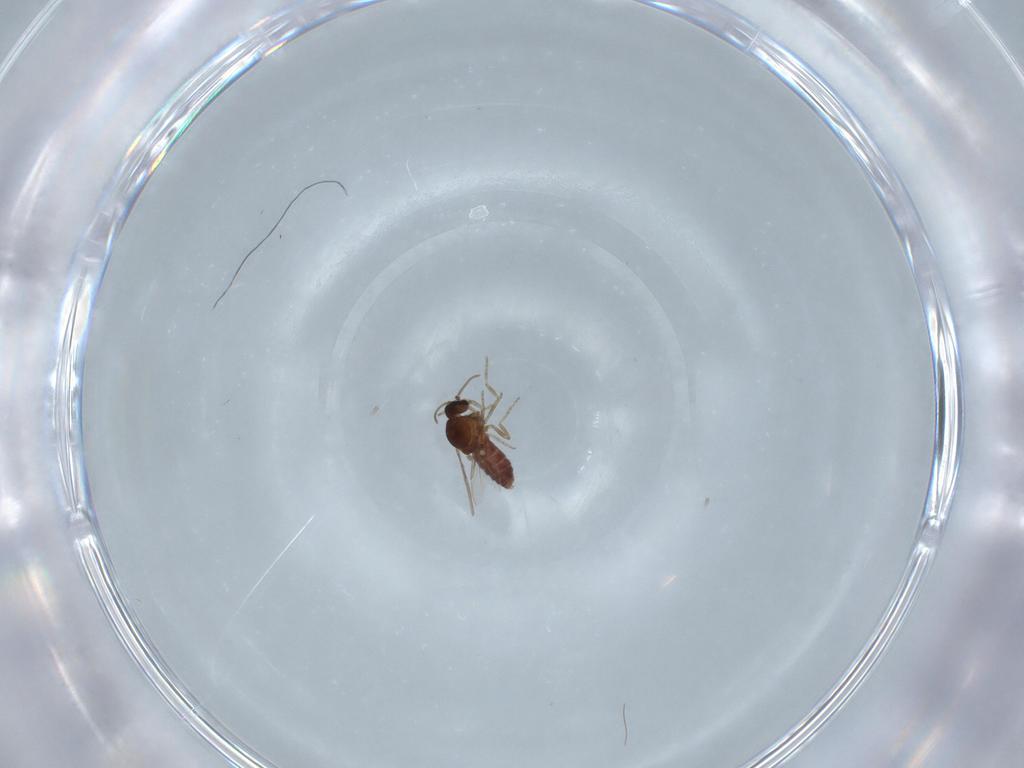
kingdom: Animalia
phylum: Arthropoda
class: Insecta
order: Diptera
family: Ceratopogonidae
